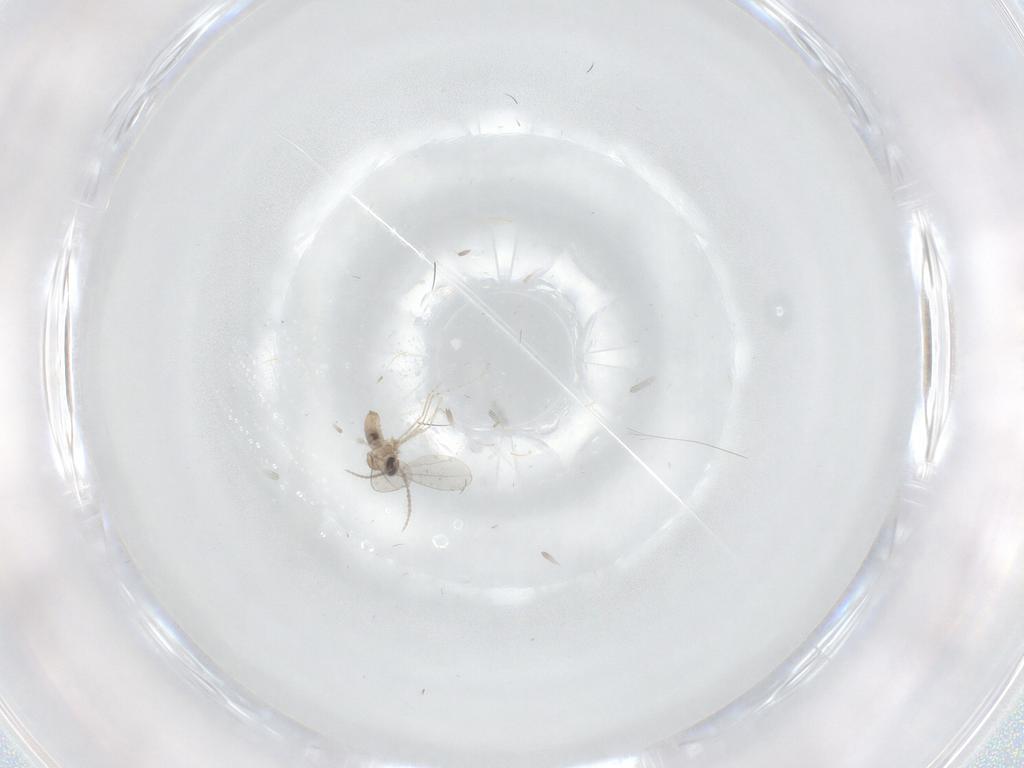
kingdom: Animalia
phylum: Arthropoda
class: Insecta
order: Diptera
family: Cecidomyiidae
